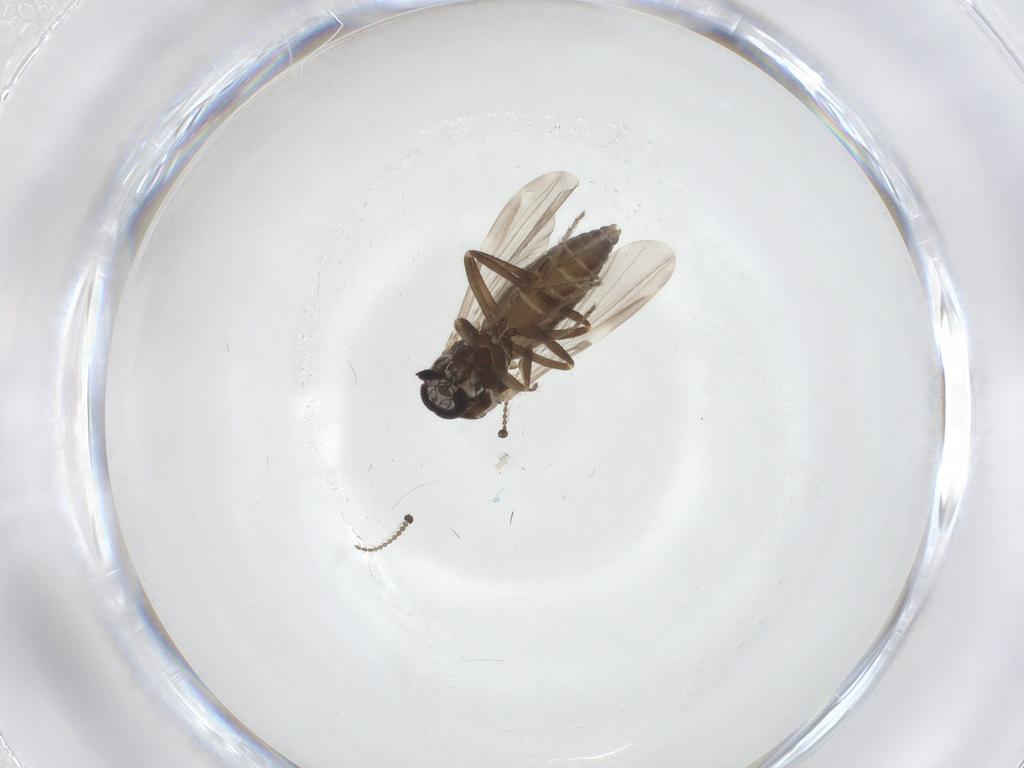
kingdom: Animalia
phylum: Arthropoda
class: Insecta
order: Diptera
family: Ceratopogonidae
